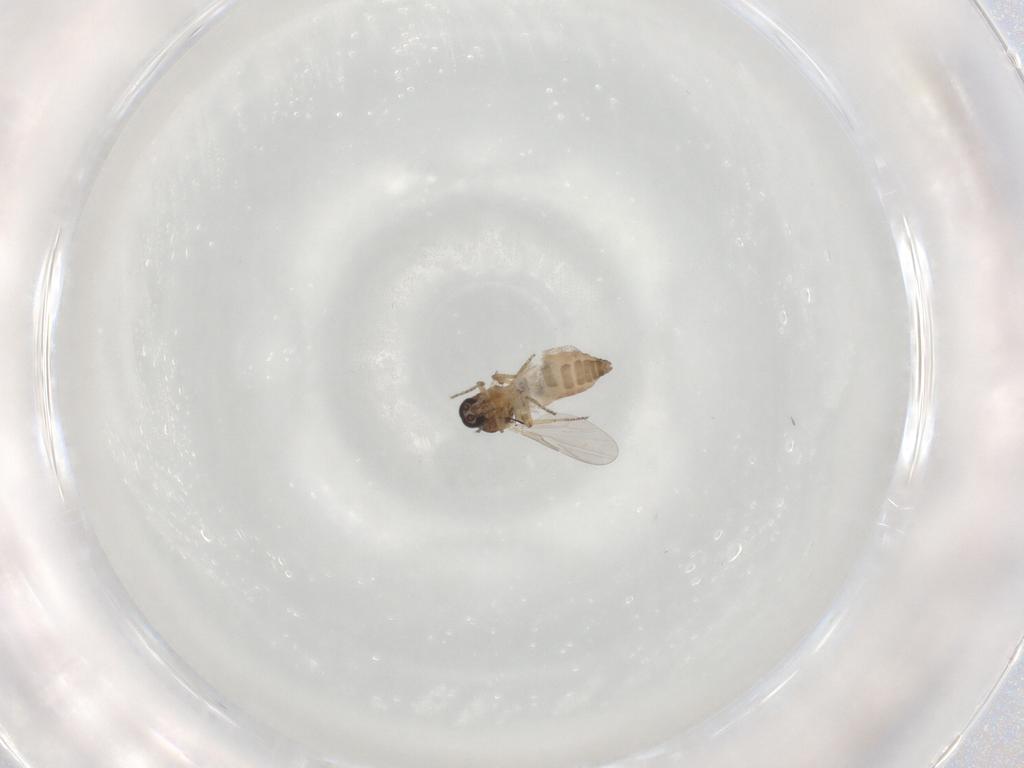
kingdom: Animalia
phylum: Arthropoda
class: Insecta
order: Diptera
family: Ceratopogonidae
